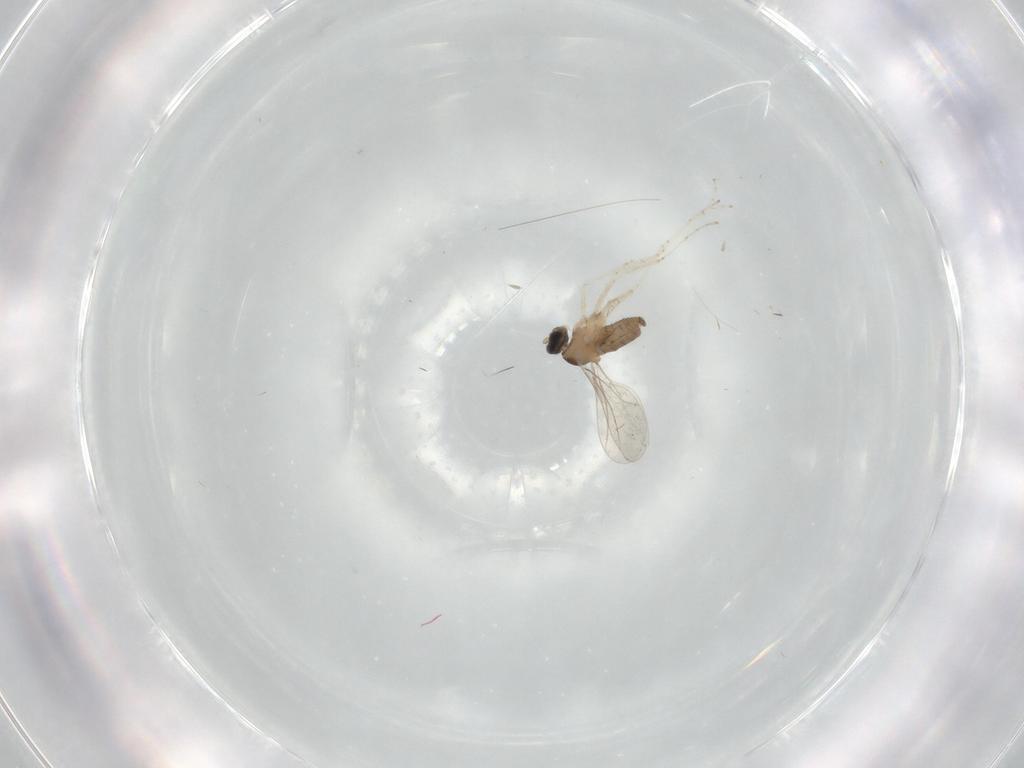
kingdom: Animalia
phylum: Arthropoda
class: Insecta
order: Diptera
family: Cecidomyiidae
